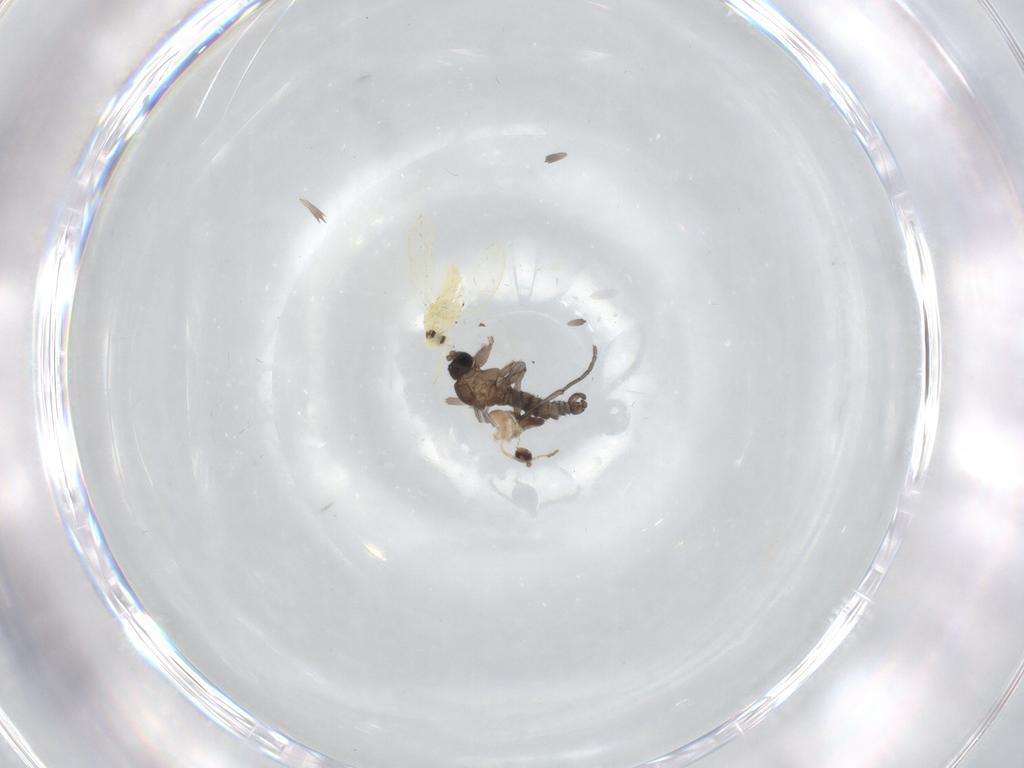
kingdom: Animalia
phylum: Arthropoda
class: Insecta
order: Diptera
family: Sciaridae
